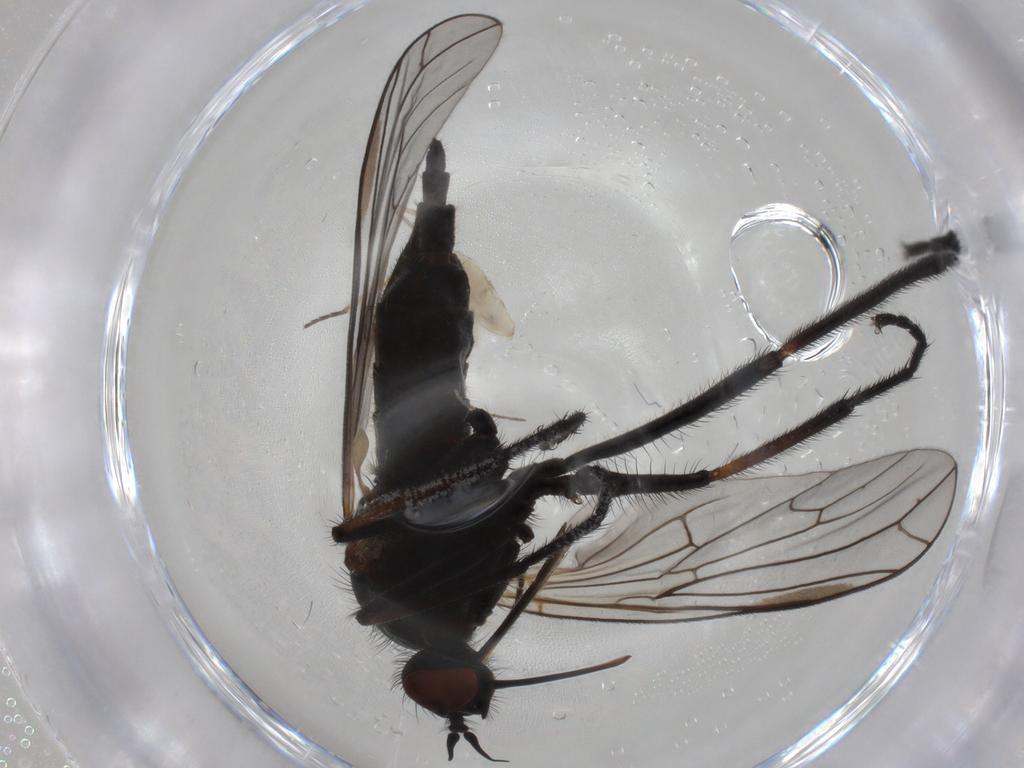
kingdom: Animalia
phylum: Arthropoda
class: Insecta
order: Diptera
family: Empididae
